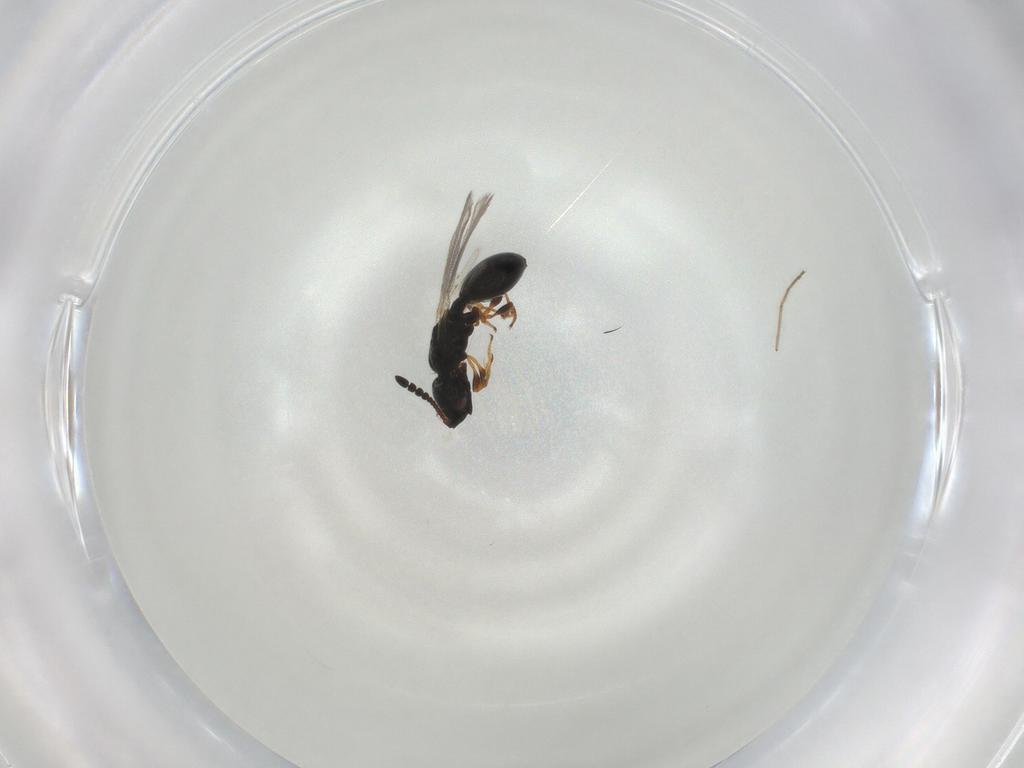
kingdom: Animalia
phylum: Arthropoda
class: Insecta
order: Hymenoptera
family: Diapriidae
